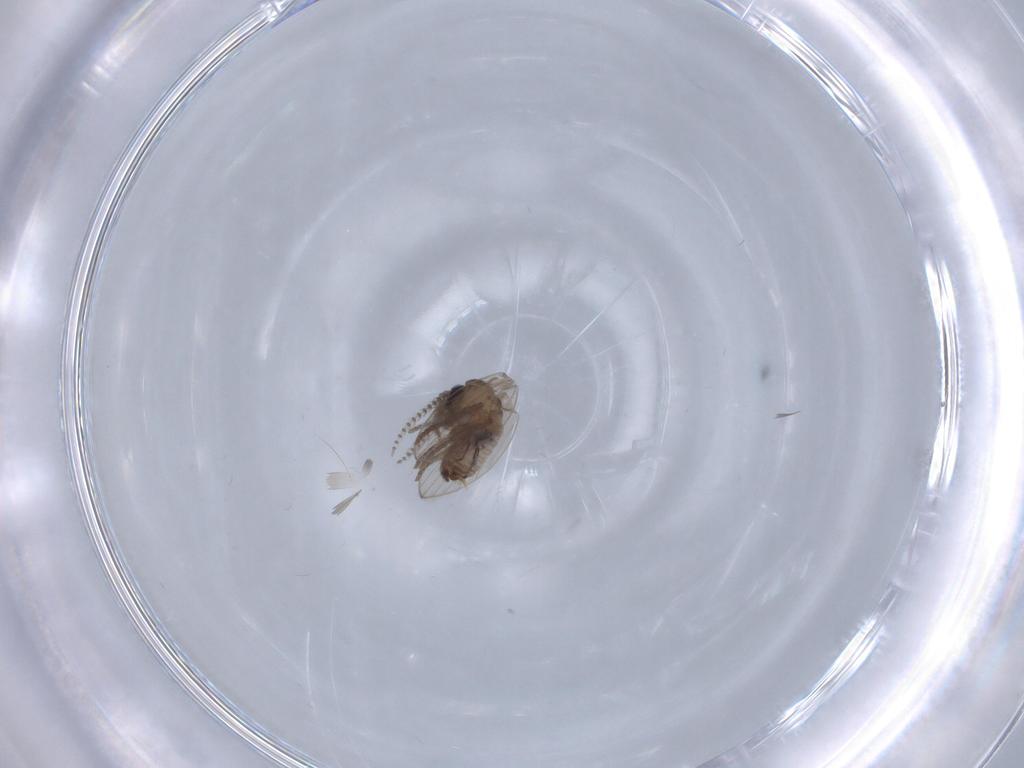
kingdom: Animalia
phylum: Arthropoda
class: Insecta
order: Diptera
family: Psychodidae
